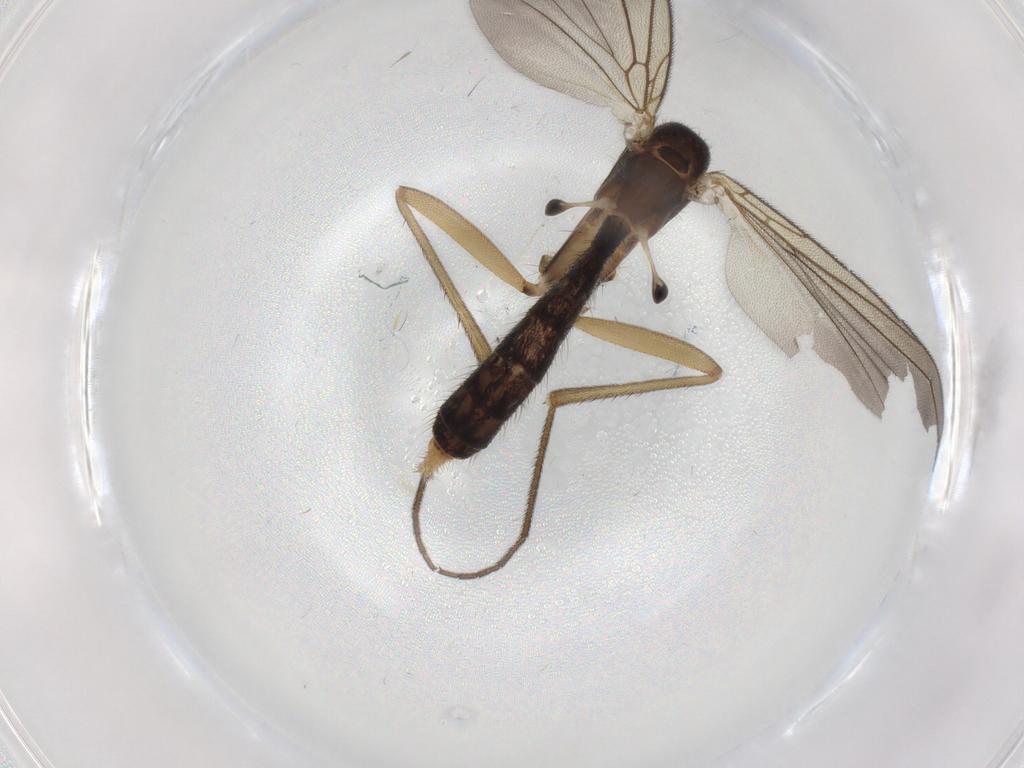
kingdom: Animalia
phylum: Arthropoda
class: Insecta
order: Diptera
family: Mycetophilidae
